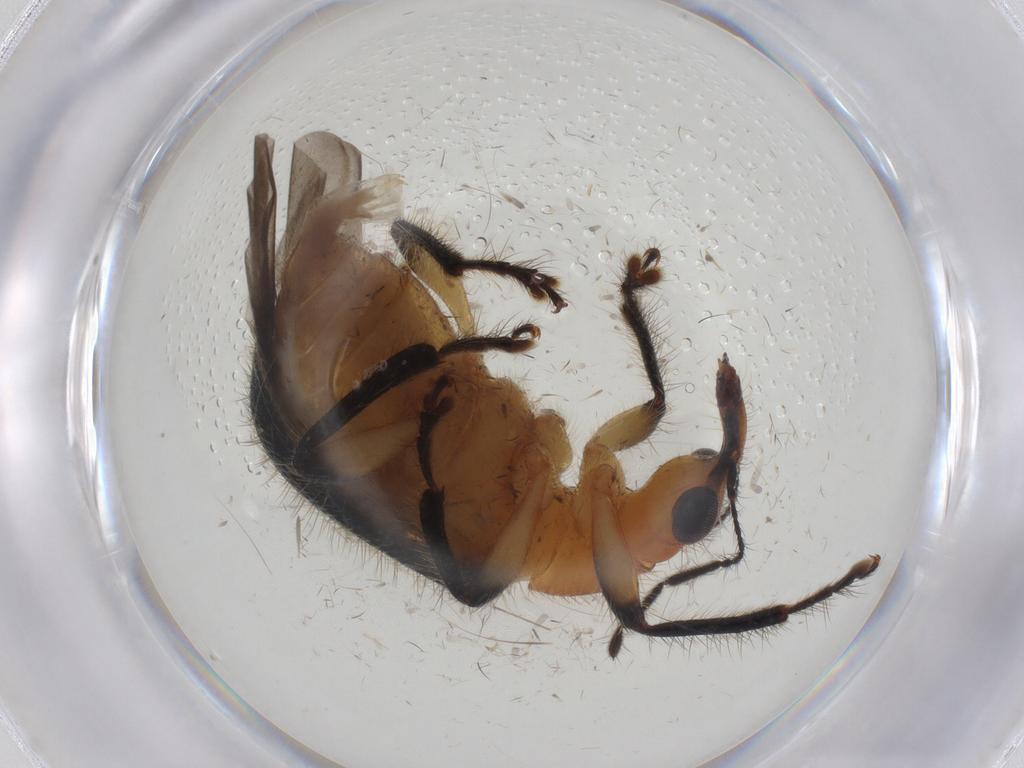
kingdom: Animalia
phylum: Arthropoda
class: Insecta
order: Coleoptera
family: Attelabidae
